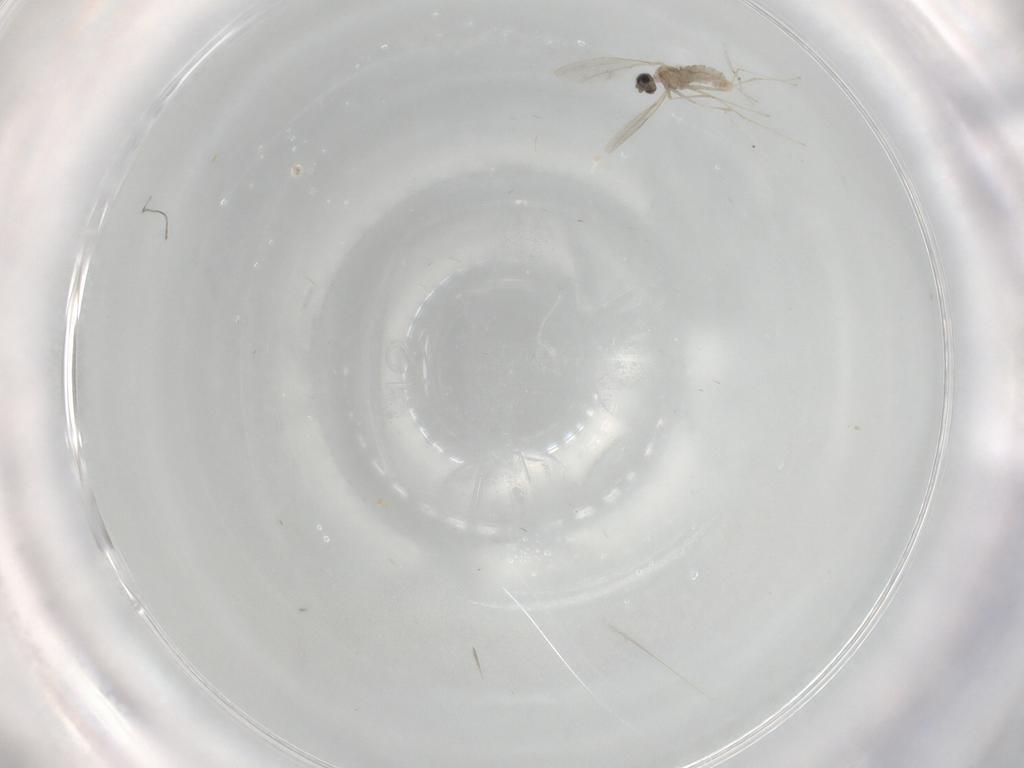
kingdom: Animalia
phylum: Arthropoda
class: Insecta
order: Diptera
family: Cecidomyiidae
